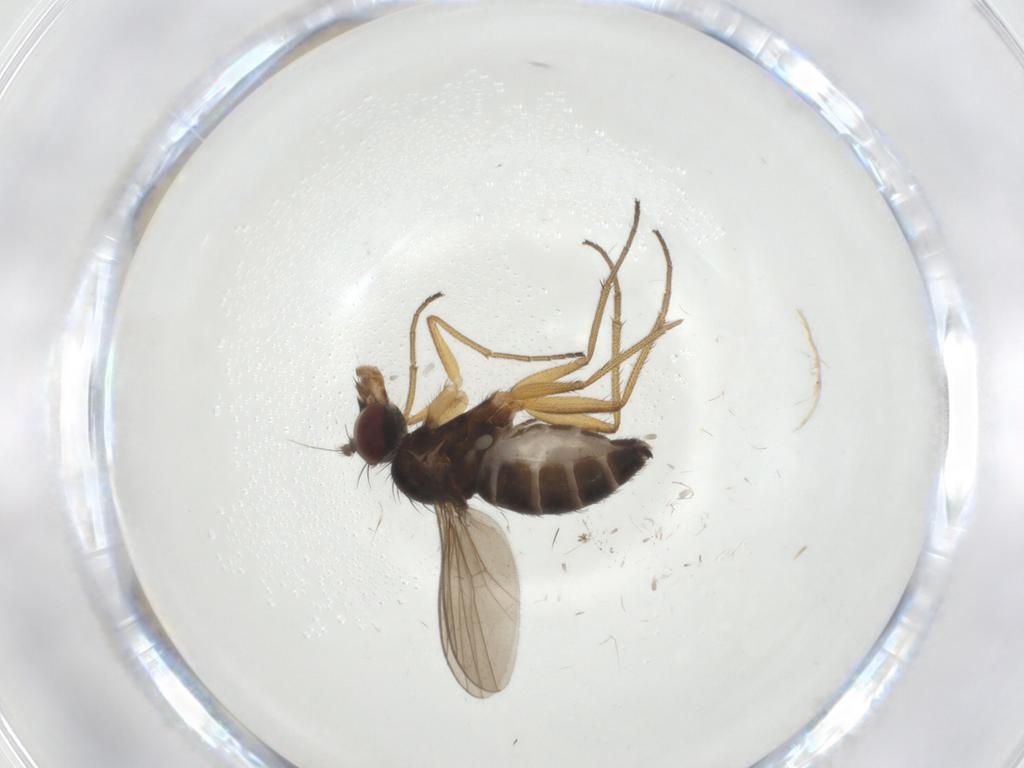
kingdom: Animalia
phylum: Arthropoda
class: Insecta
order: Diptera
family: Dolichopodidae
